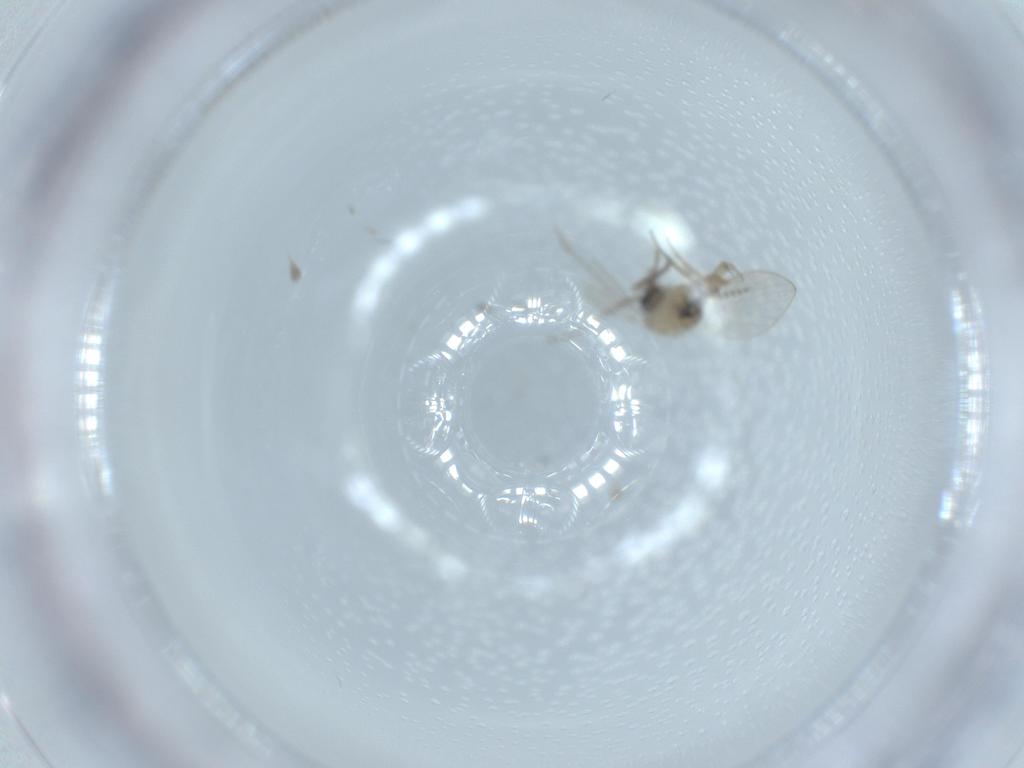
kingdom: Animalia
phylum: Arthropoda
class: Insecta
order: Diptera
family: Psychodidae
